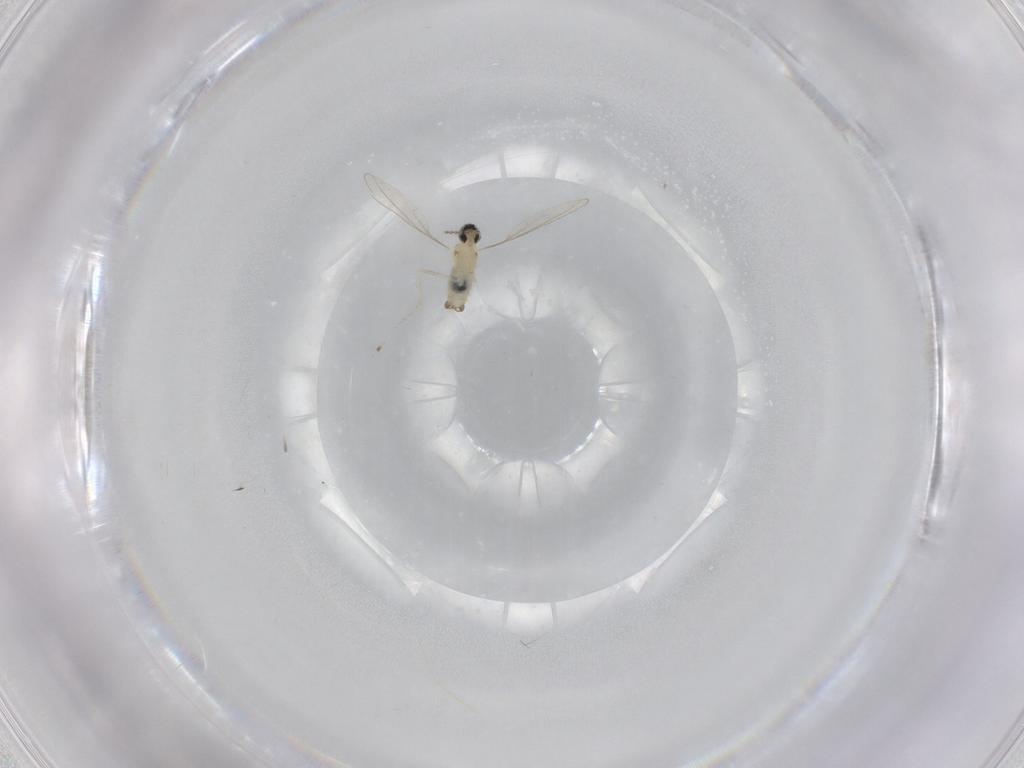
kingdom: Animalia
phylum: Arthropoda
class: Insecta
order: Diptera
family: Cecidomyiidae
